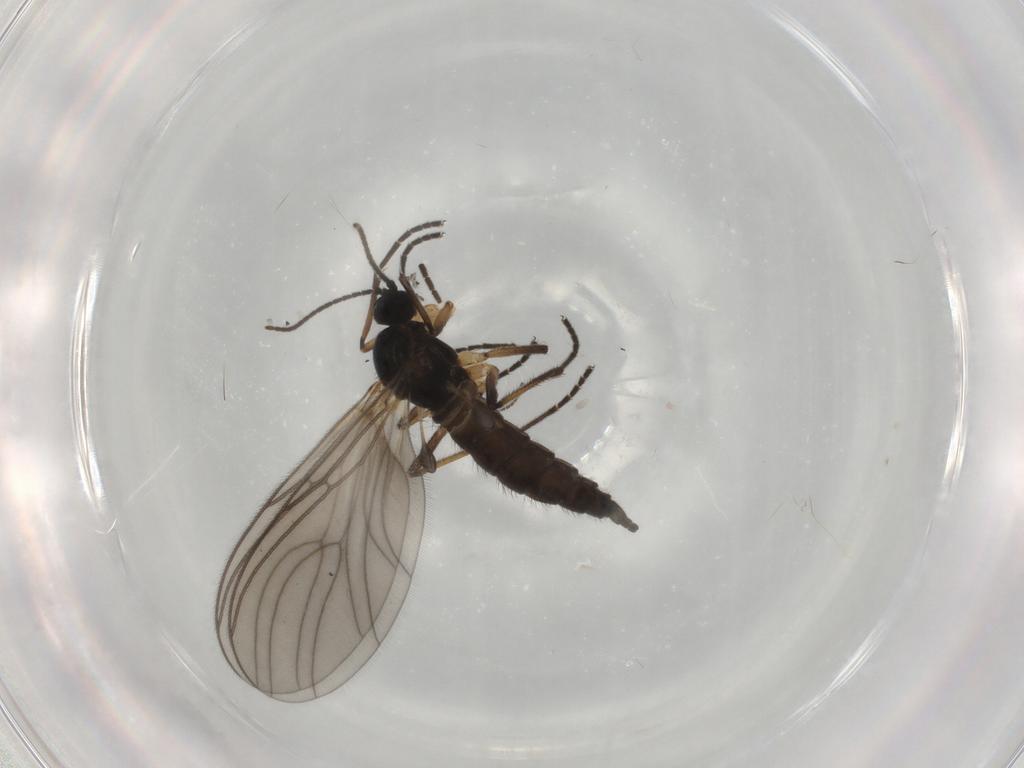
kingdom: Animalia
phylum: Arthropoda
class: Insecta
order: Diptera
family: Sciaridae
